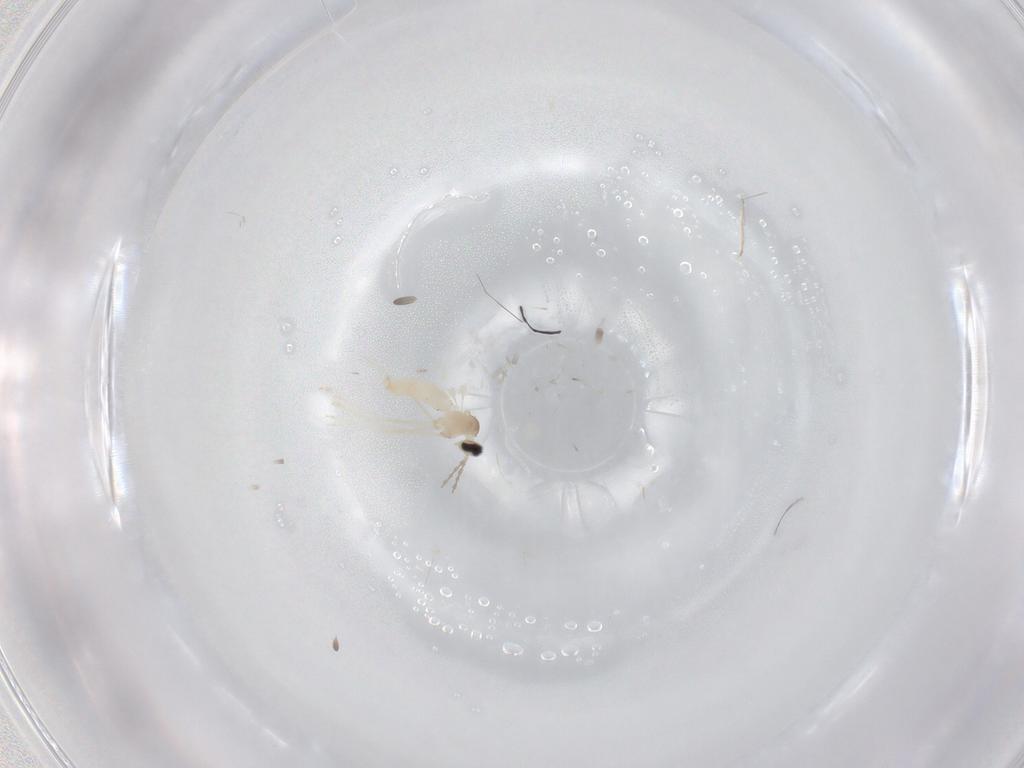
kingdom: Animalia
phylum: Arthropoda
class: Insecta
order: Diptera
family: Cecidomyiidae
